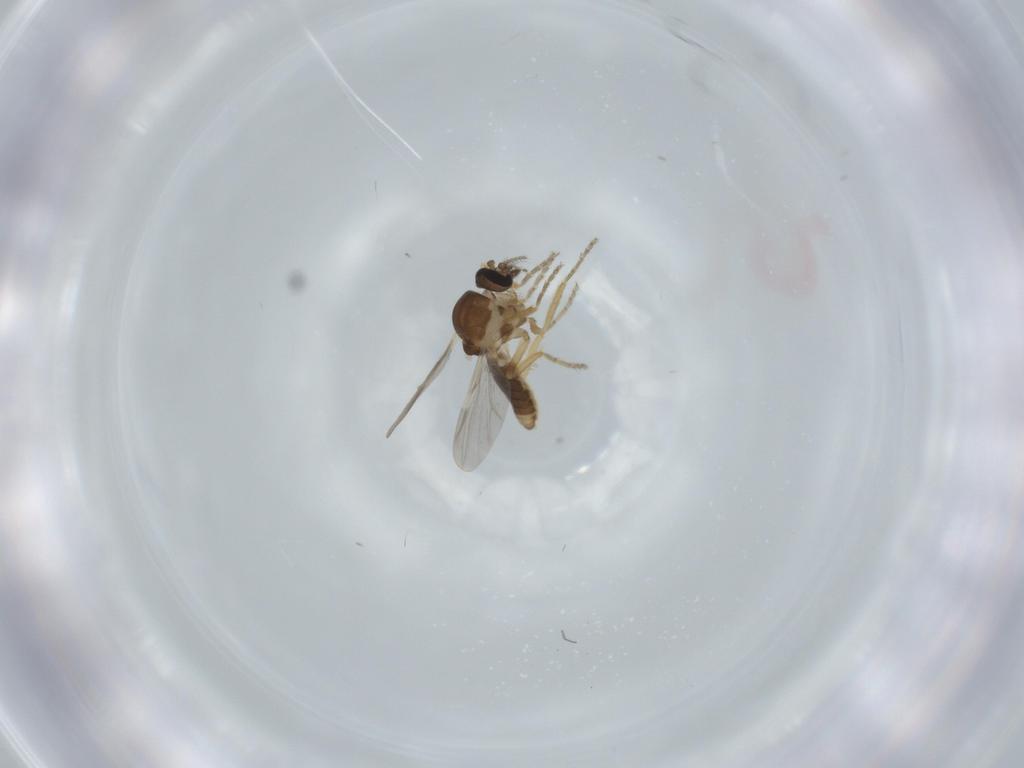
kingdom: Animalia
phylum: Arthropoda
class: Insecta
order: Diptera
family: Ceratopogonidae
